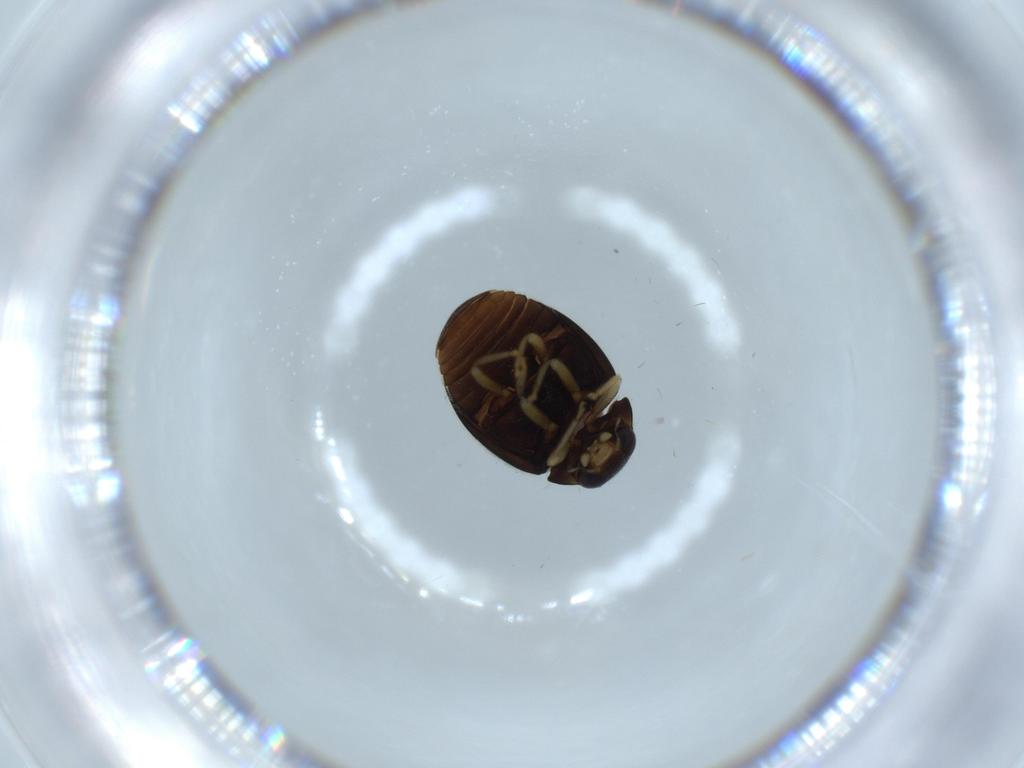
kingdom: Animalia
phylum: Arthropoda
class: Insecta
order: Coleoptera
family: Coccinellidae
